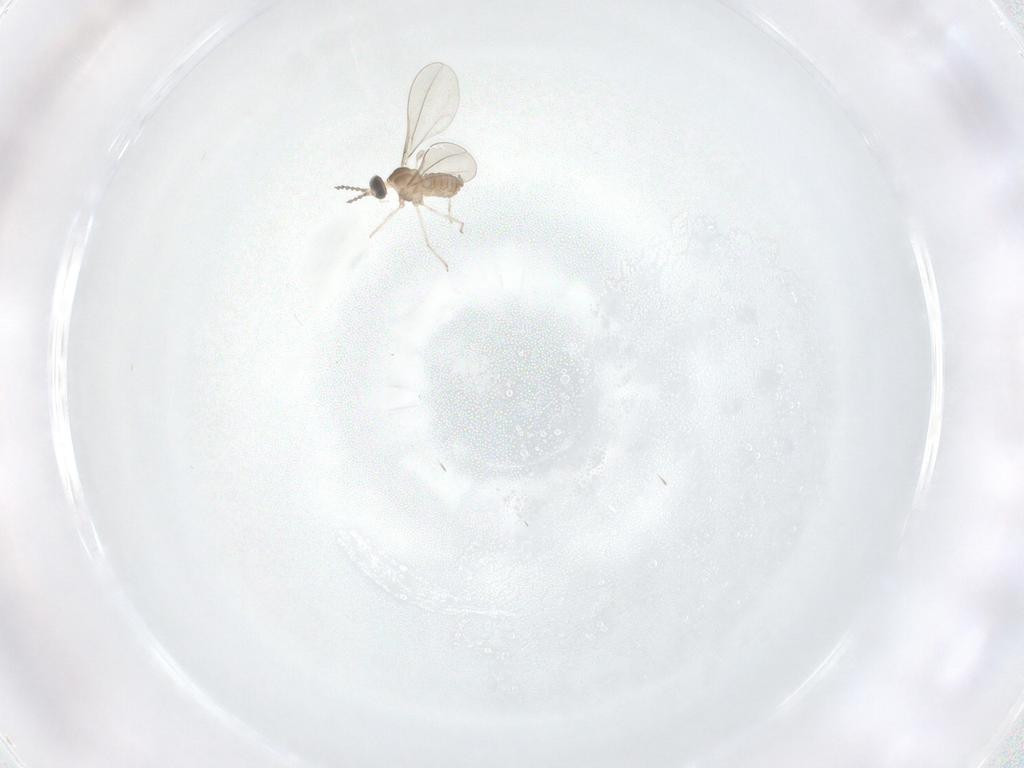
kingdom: Animalia
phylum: Arthropoda
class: Insecta
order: Diptera
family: Cecidomyiidae
